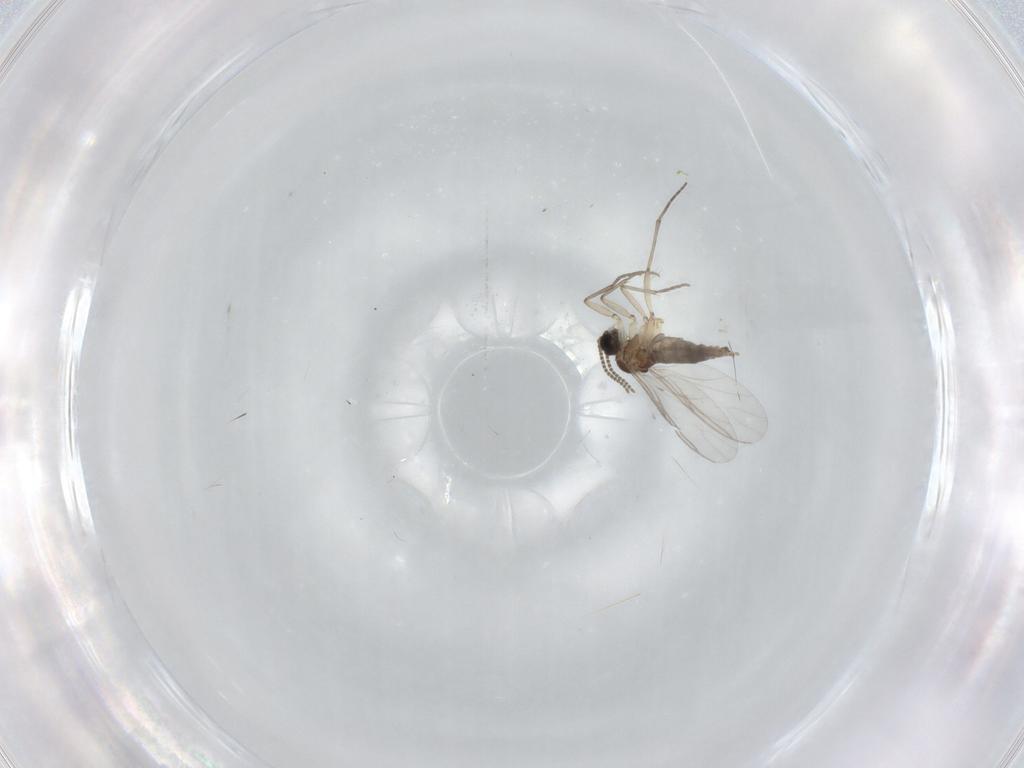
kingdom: Animalia
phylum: Arthropoda
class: Insecta
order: Diptera
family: Sciaridae
